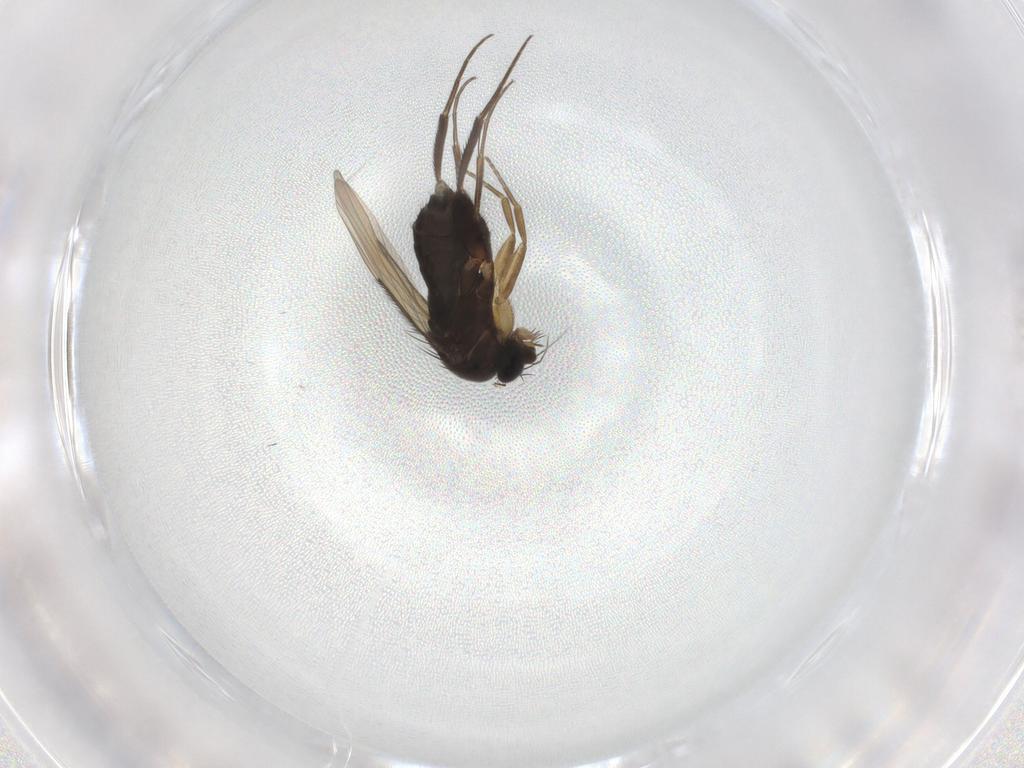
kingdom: Animalia
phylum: Arthropoda
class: Insecta
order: Diptera
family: Phoridae
